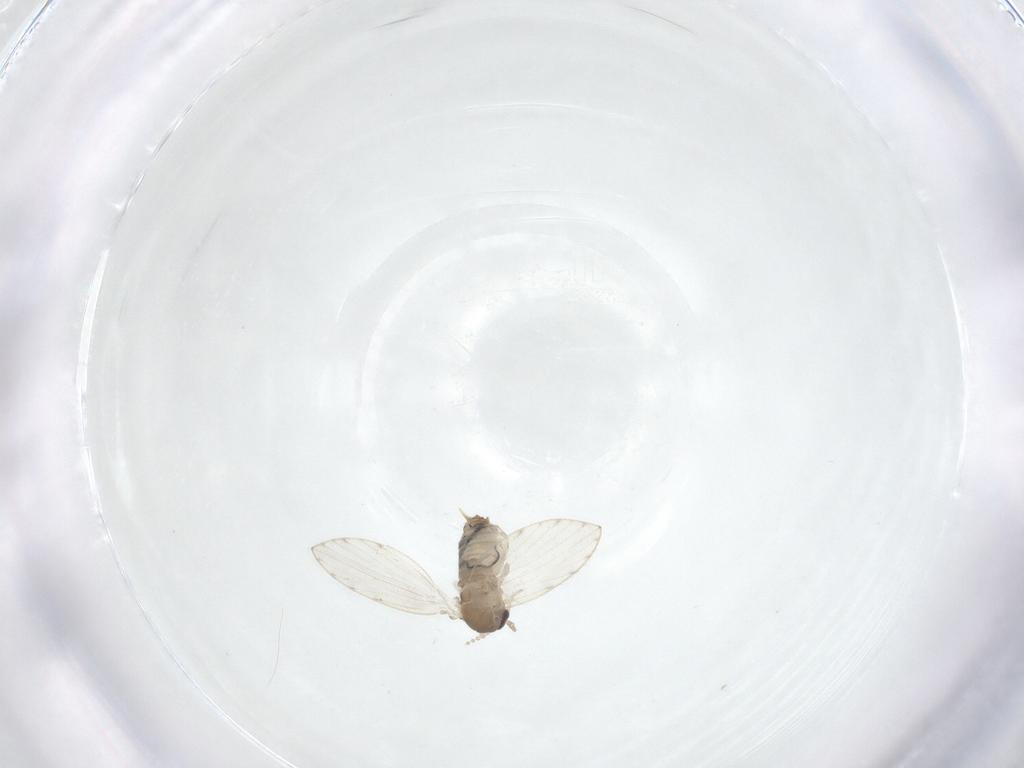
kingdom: Animalia
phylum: Arthropoda
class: Insecta
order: Diptera
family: Psychodidae
